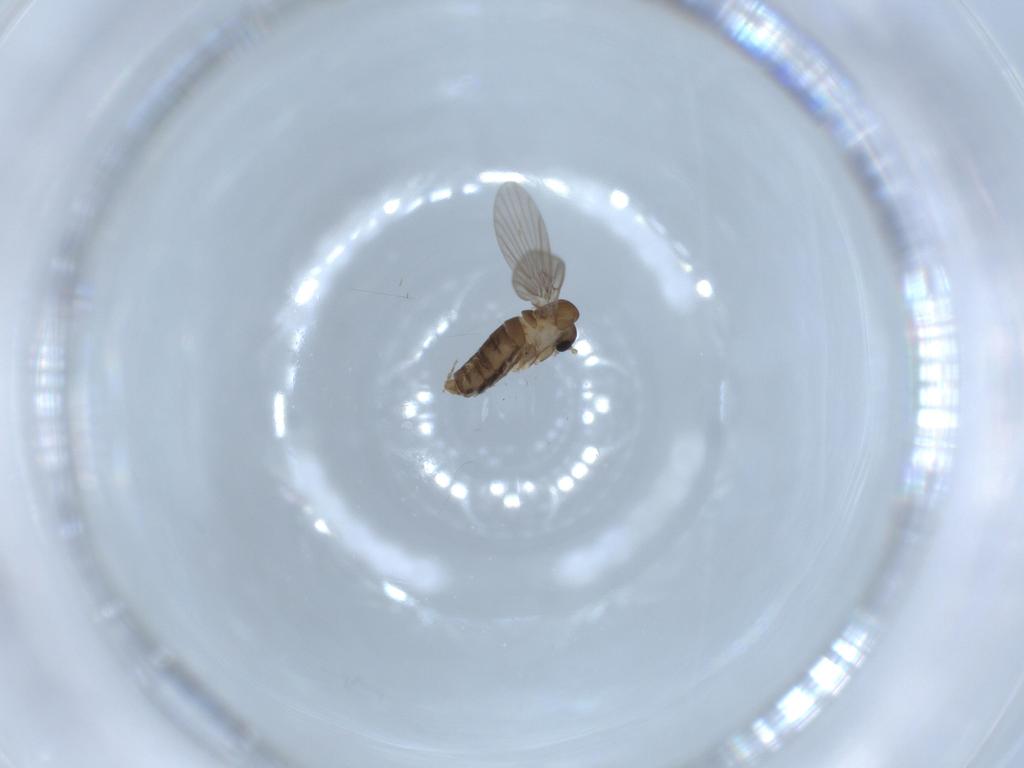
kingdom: Animalia
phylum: Arthropoda
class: Insecta
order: Diptera
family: Pipunculidae
